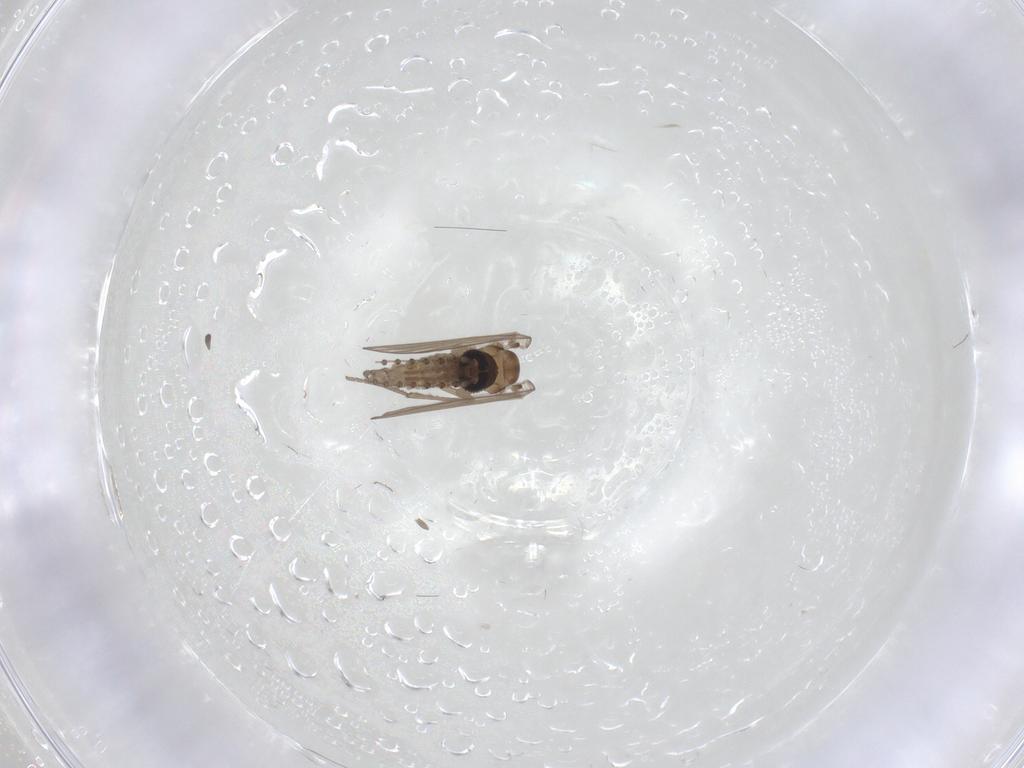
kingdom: Animalia
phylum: Arthropoda
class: Insecta
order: Diptera
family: Chironomidae
